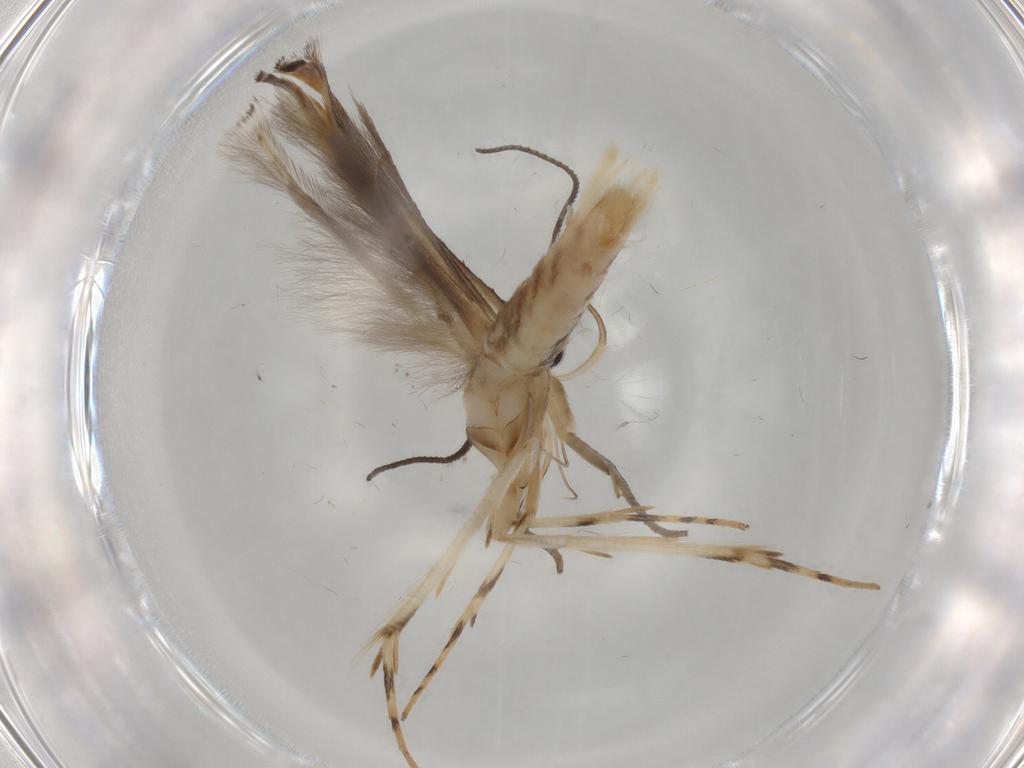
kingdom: Animalia
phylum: Arthropoda
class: Insecta
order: Lepidoptera
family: Gelechiidae
